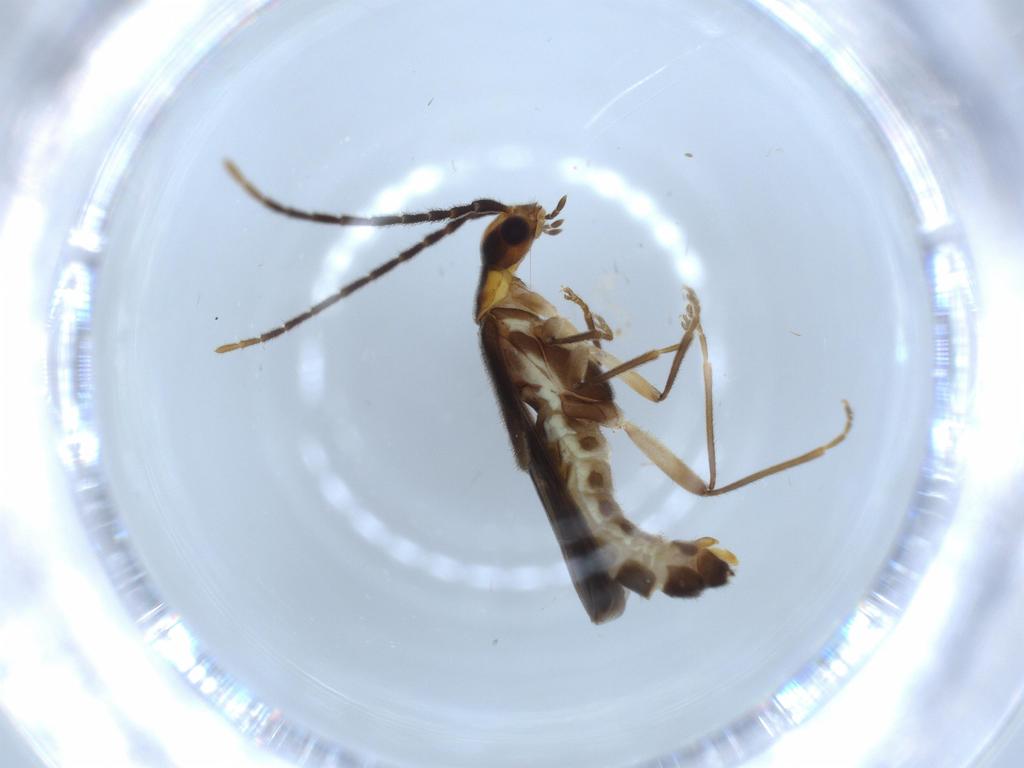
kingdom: Animalia
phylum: Arthropoda
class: Insecta
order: Coleoptera
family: Cantharidae
